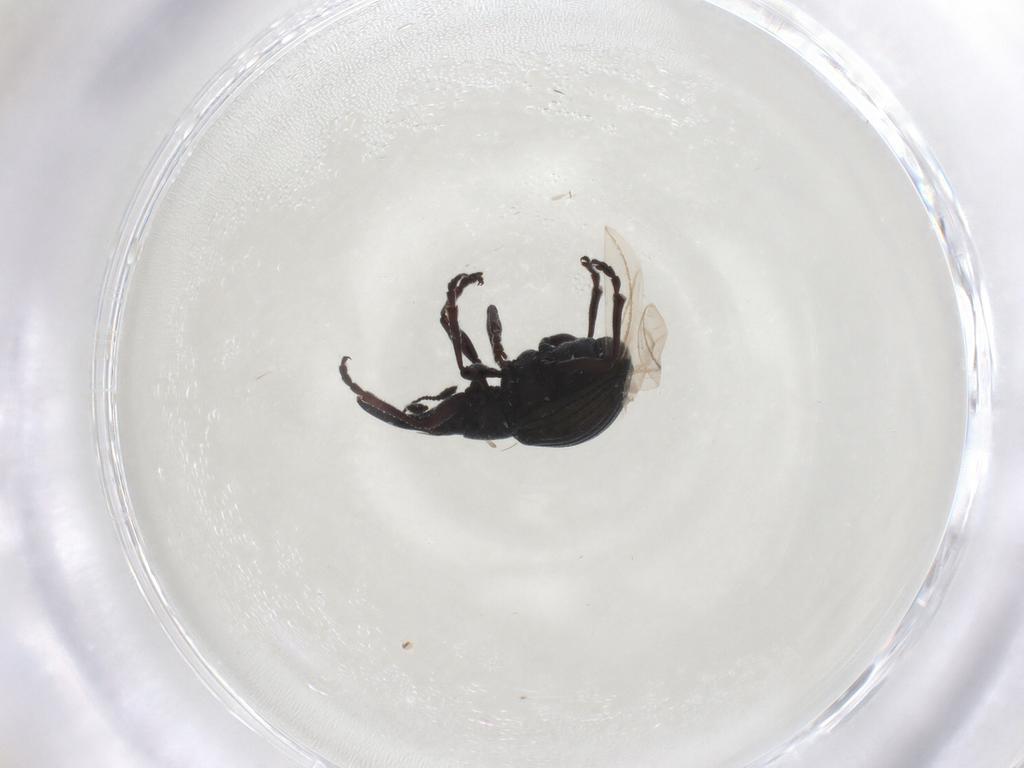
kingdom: Animalia
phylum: Arthropoda
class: Insecta
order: Coleoptera
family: Brentidae
